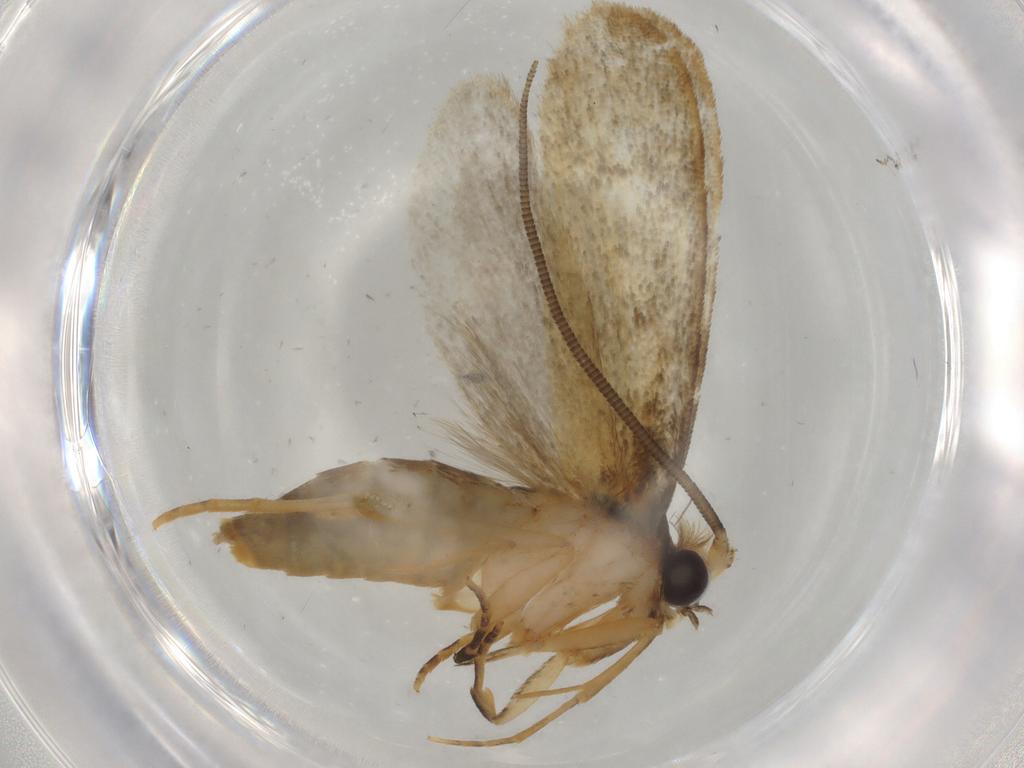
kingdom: Animalia
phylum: Arthropoda
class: Insecta
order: Lepidoptera
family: Tineidae
